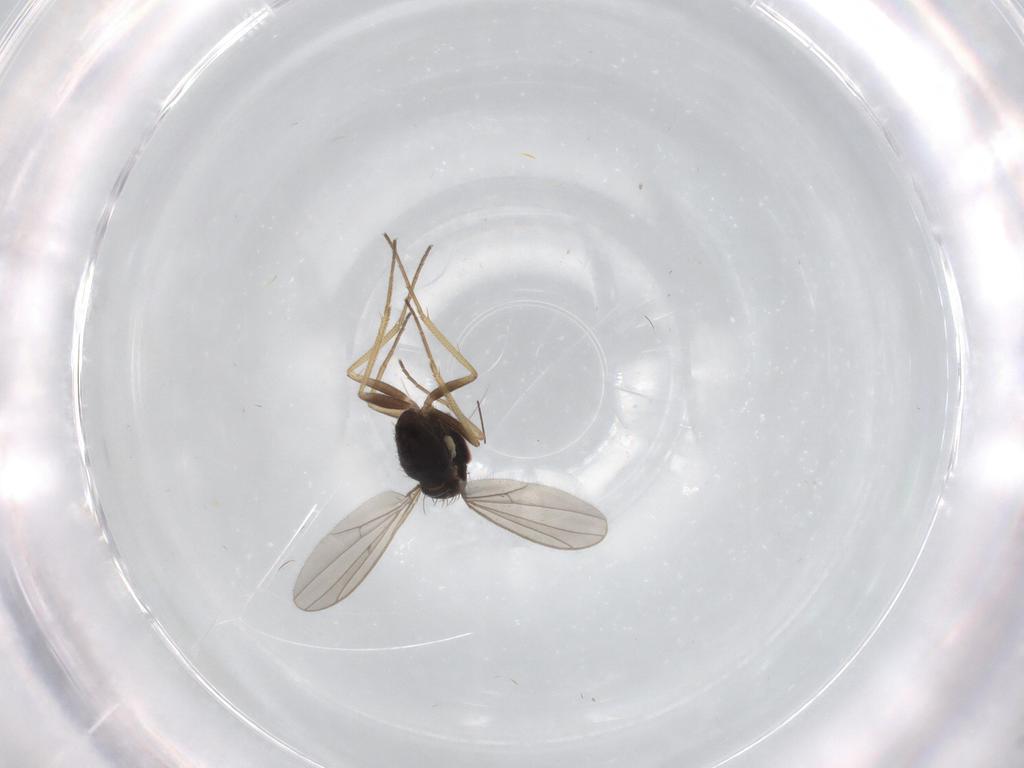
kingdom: Animalia
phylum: Arthropoda
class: Insecta
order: Diptera
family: Dolichopodidae
